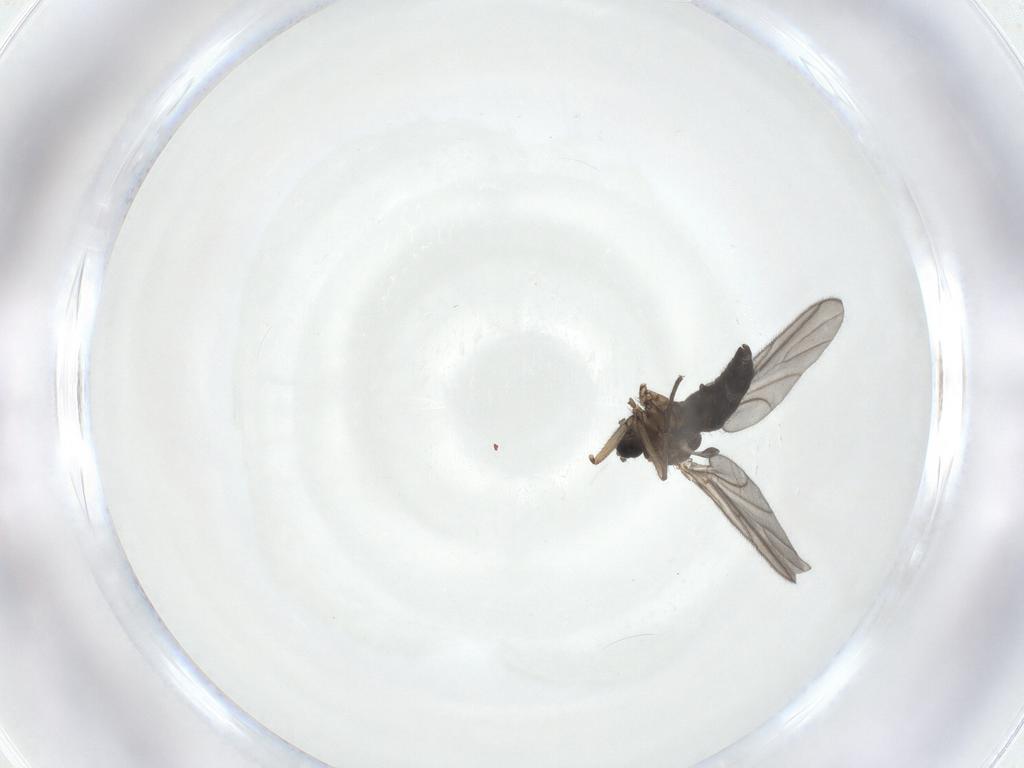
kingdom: Animalia
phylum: Arthropoda
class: Insecta
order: Diptera
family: Sciaridae
